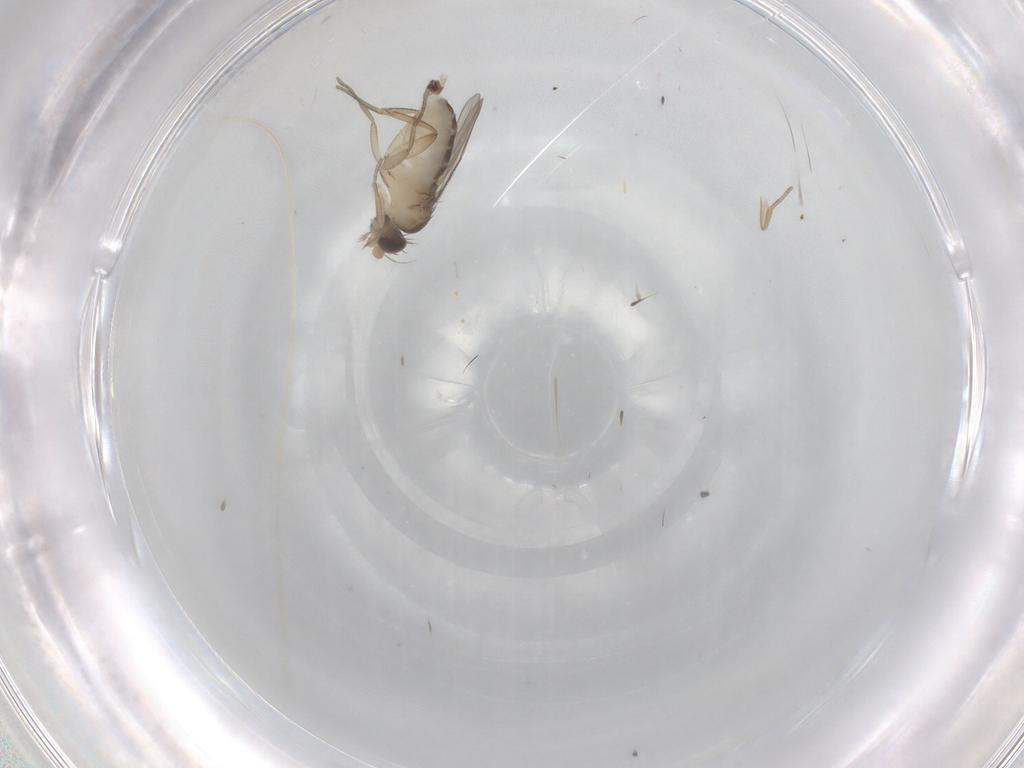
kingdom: Animalia
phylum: Arthropoda
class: Insecta
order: Diptera
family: Chironomidae
